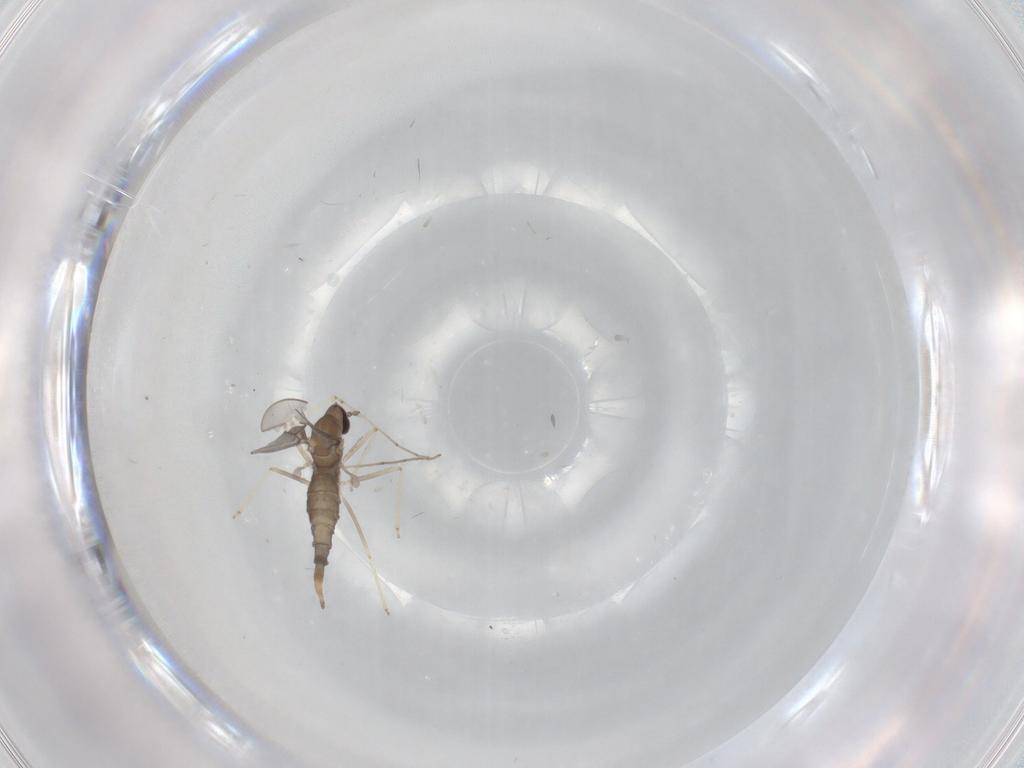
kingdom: Animalia
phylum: Arthropoda
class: Insecta
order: Diptera
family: Cecidomyiidae
